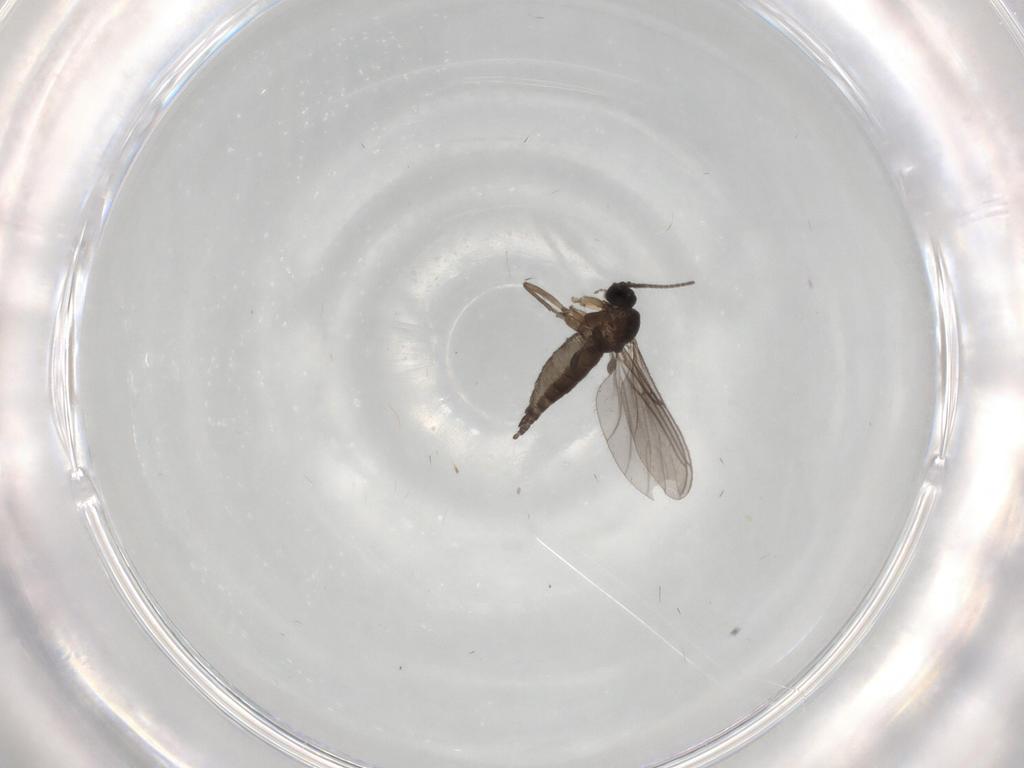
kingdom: Animalia
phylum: Arthropoda
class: Insecta
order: Diptera
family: Sciaridae
